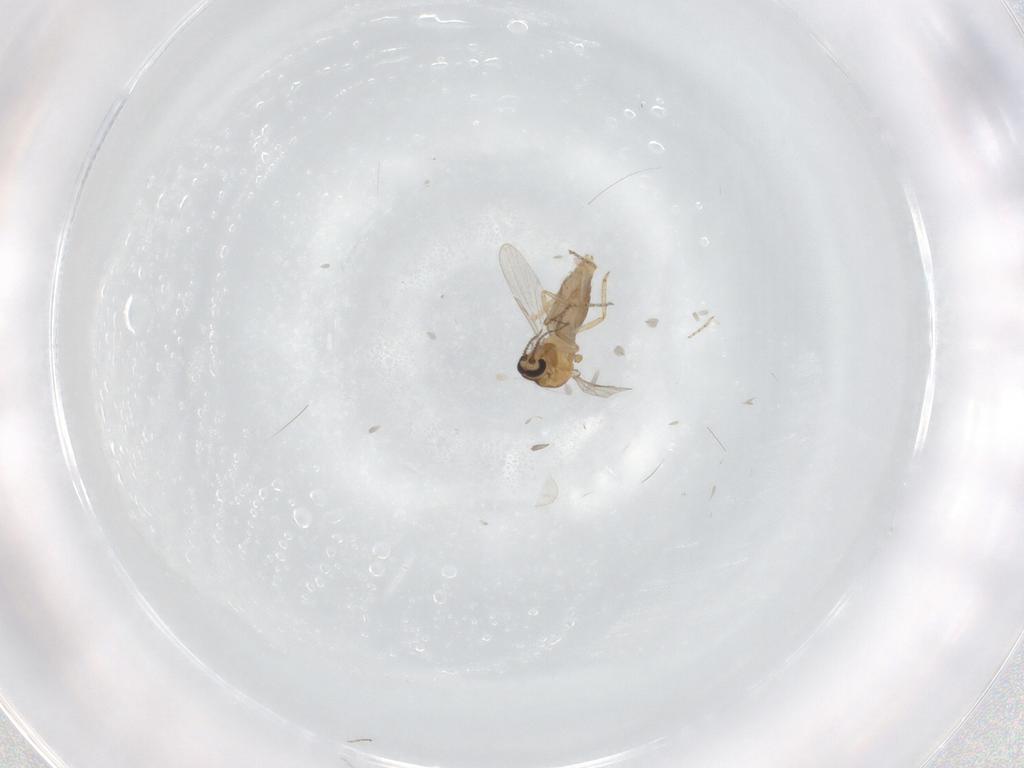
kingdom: Animalia
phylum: Arthropoda
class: Insecta
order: Diptera
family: Ceratopogonidae
